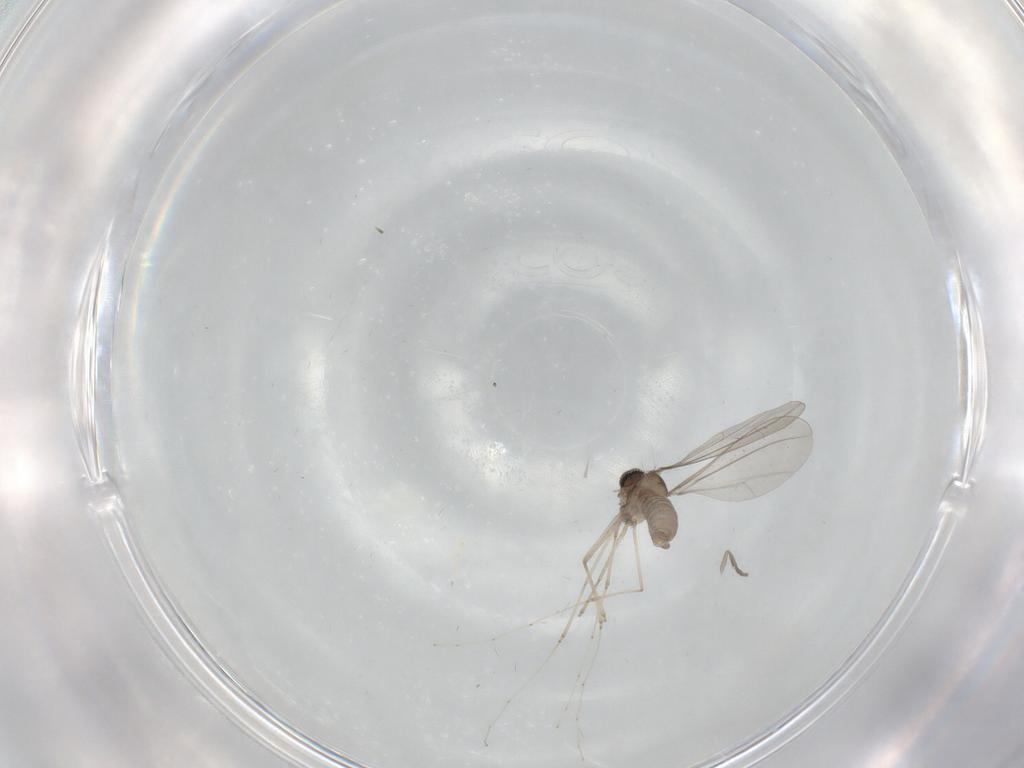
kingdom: Animalia
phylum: Arthropoda
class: Insecta
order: Diptera
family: Cecidomyiidae
